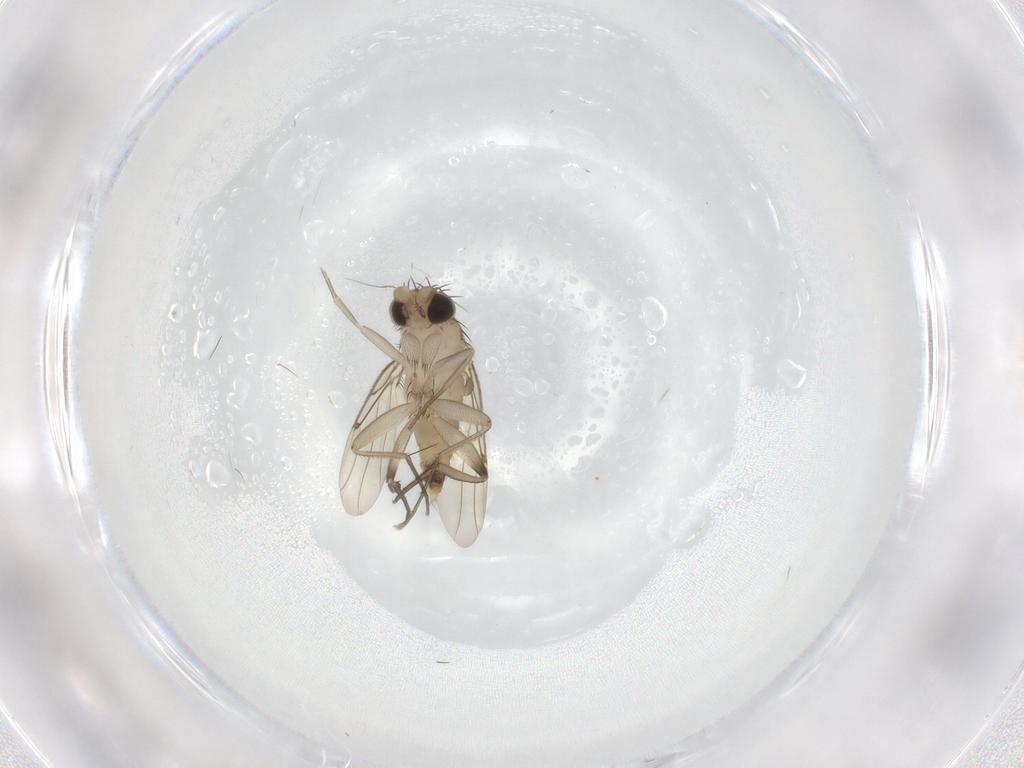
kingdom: Animalia
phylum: Arthropoda
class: Insecta
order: Diptera
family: Phoridae
